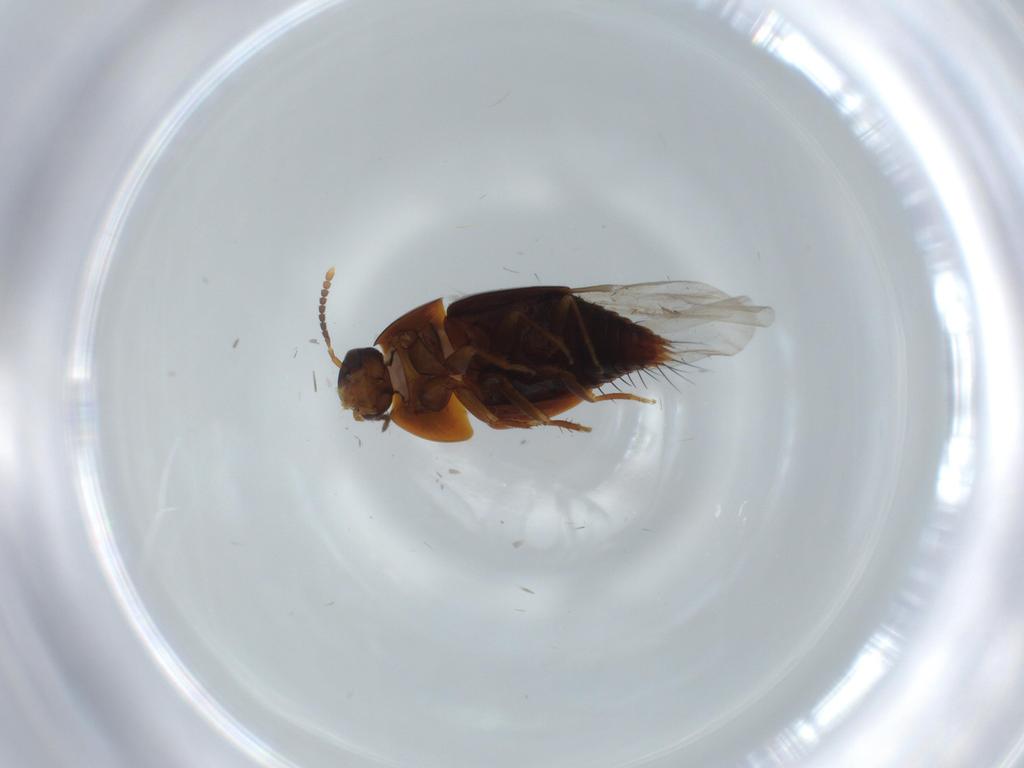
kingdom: Animalia
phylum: Arthropoda
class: Insecta
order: Coleoptera
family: Staphylinidae
